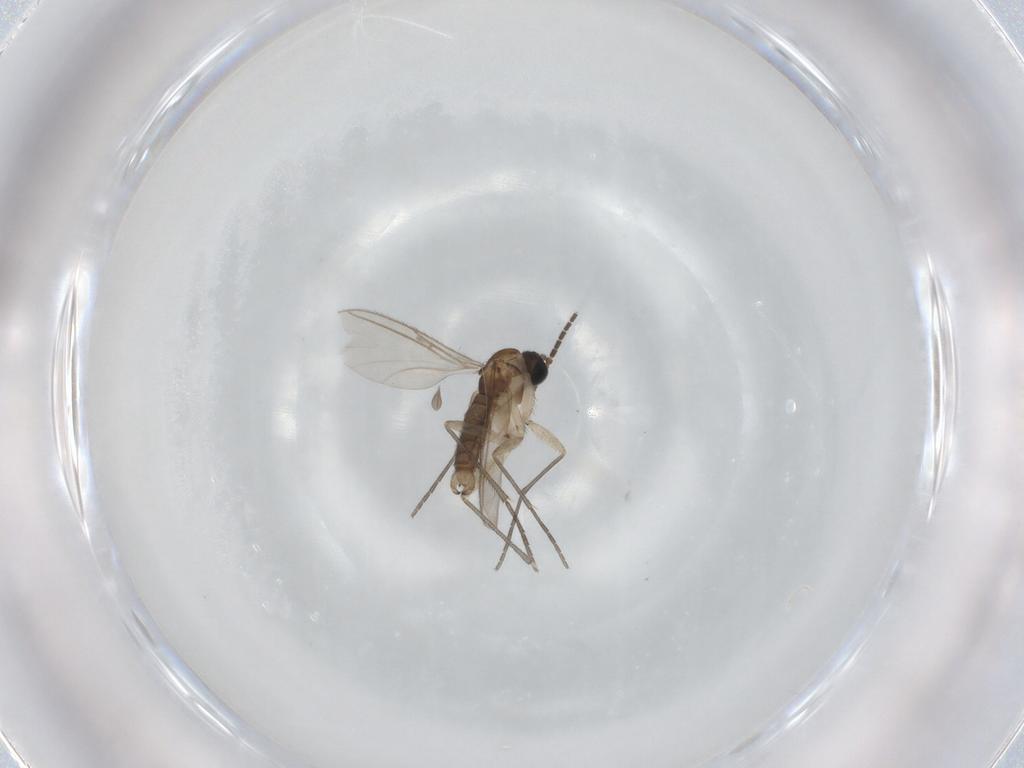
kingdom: Animalia
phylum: Arthropoda
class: Insecta
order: Diptera
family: Sciaridae
